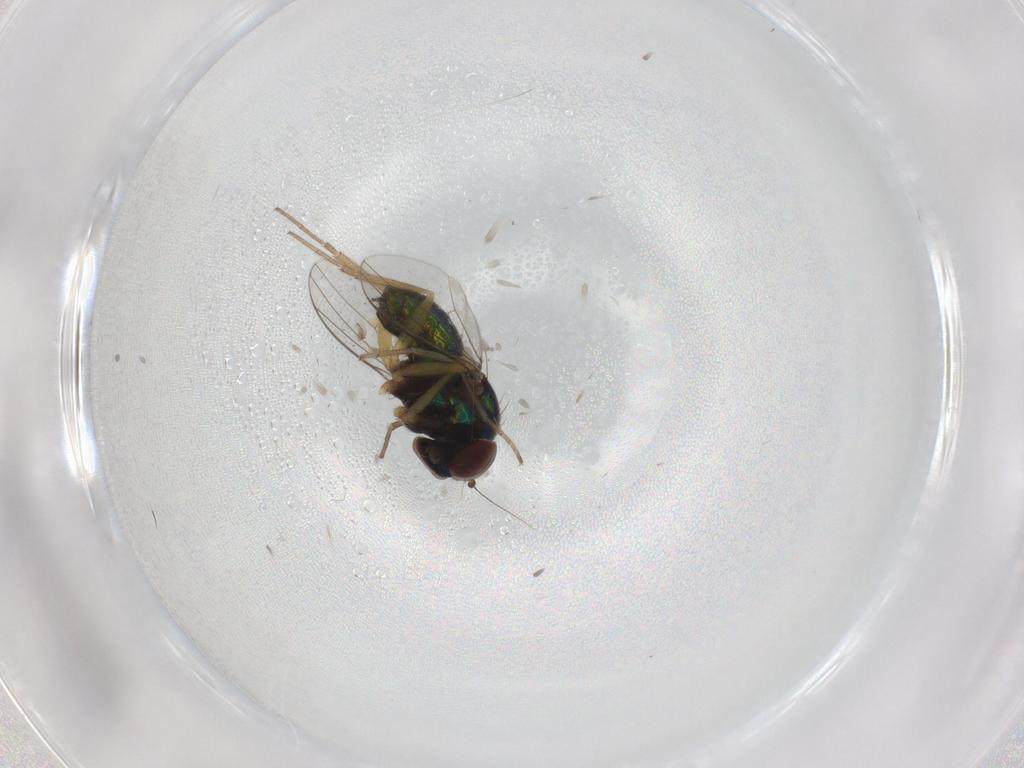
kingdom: Animalia
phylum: Arthropoda
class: Insecta
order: Diptera
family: Dolichopodidae
